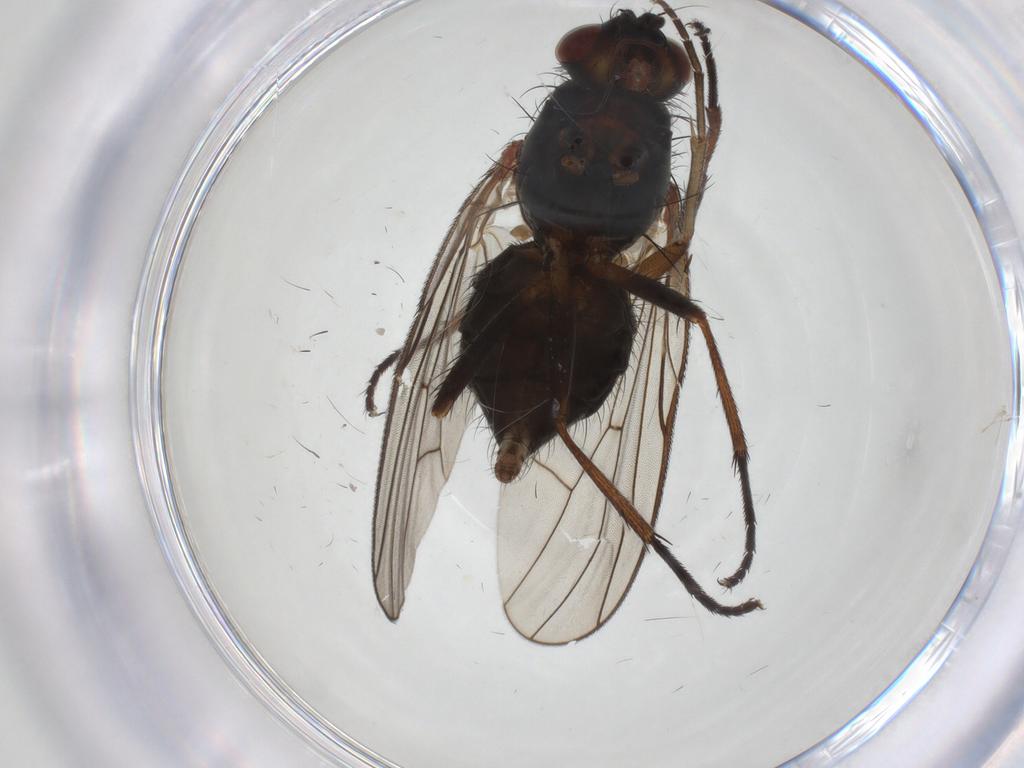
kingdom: Animalia
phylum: Arthropoda
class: Insecta
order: Diptera
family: Anthomyiidae
